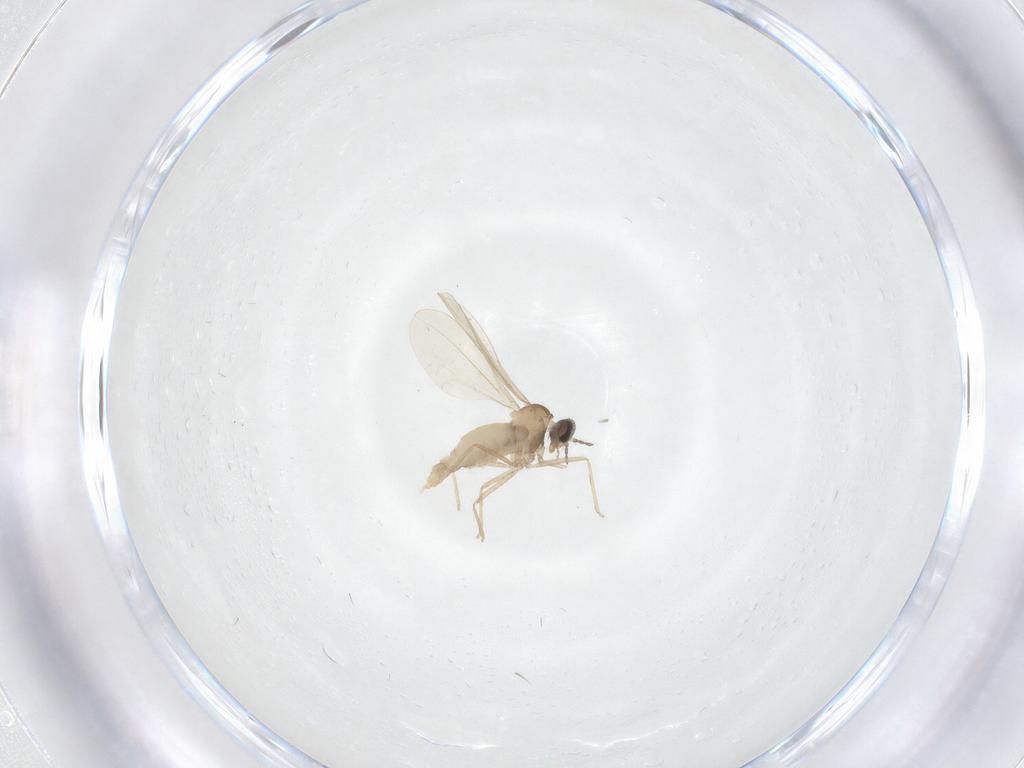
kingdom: Animalia
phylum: Arthropoda
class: Insecta
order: Diptera
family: Cecidomyiidae
